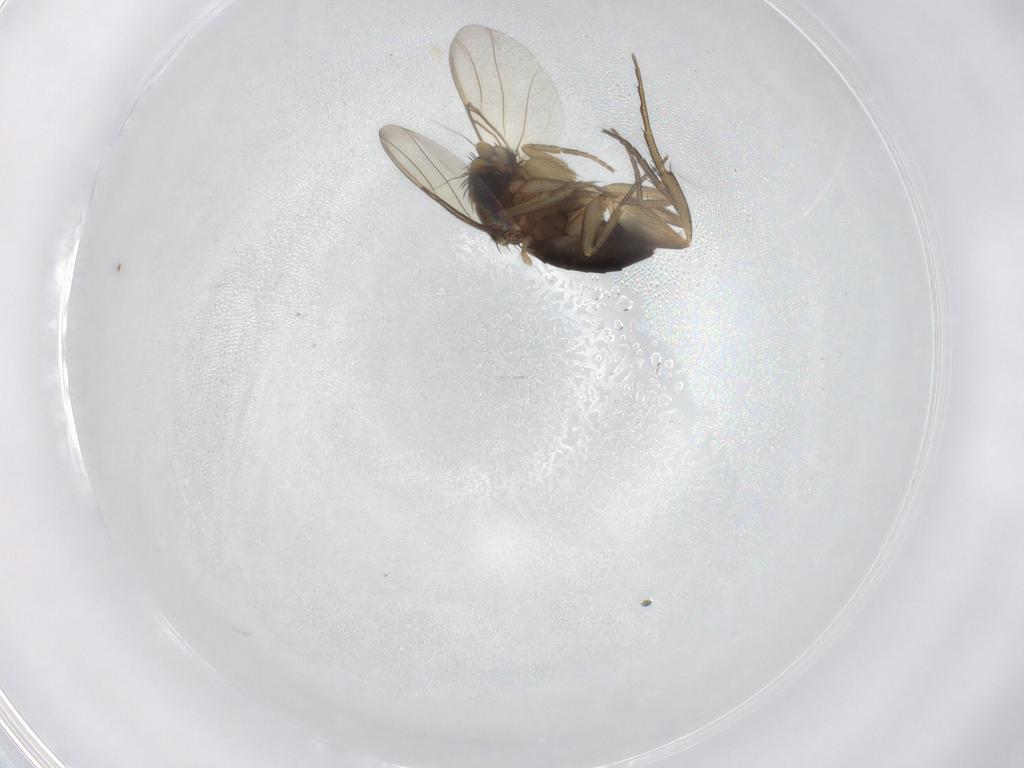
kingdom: Animalia
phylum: Arthropoda
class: Insecta
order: Diptera
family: Phoridae
